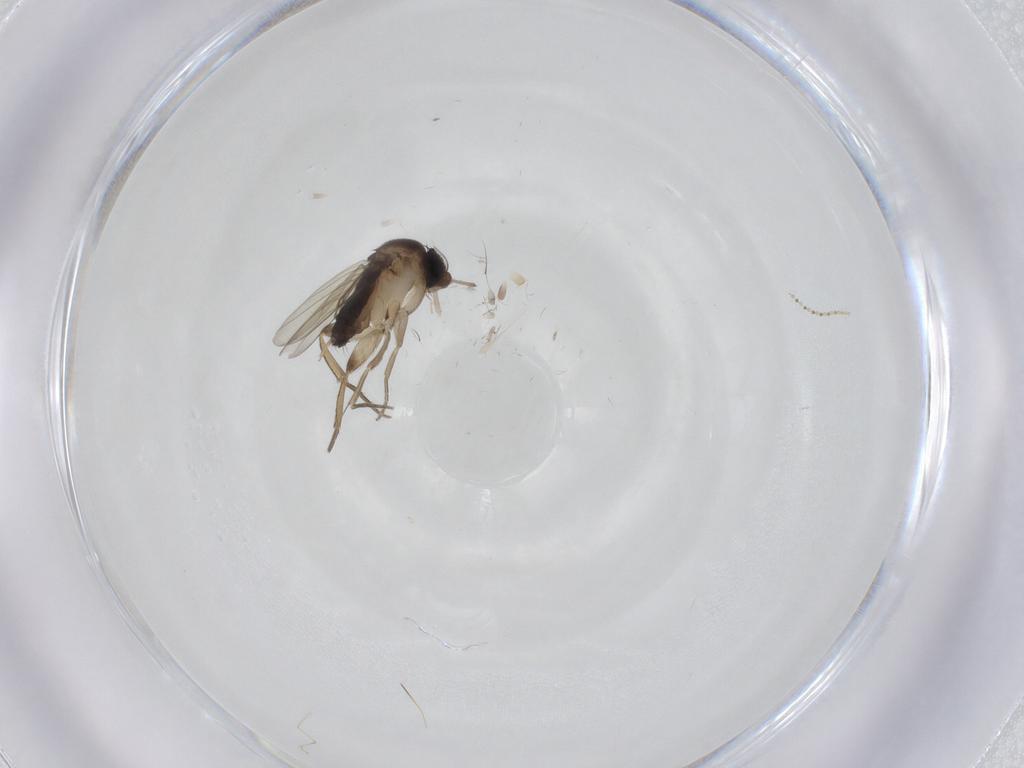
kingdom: Animalia
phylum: Arthropoda
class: Insecta
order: Diptera
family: Phoridae
